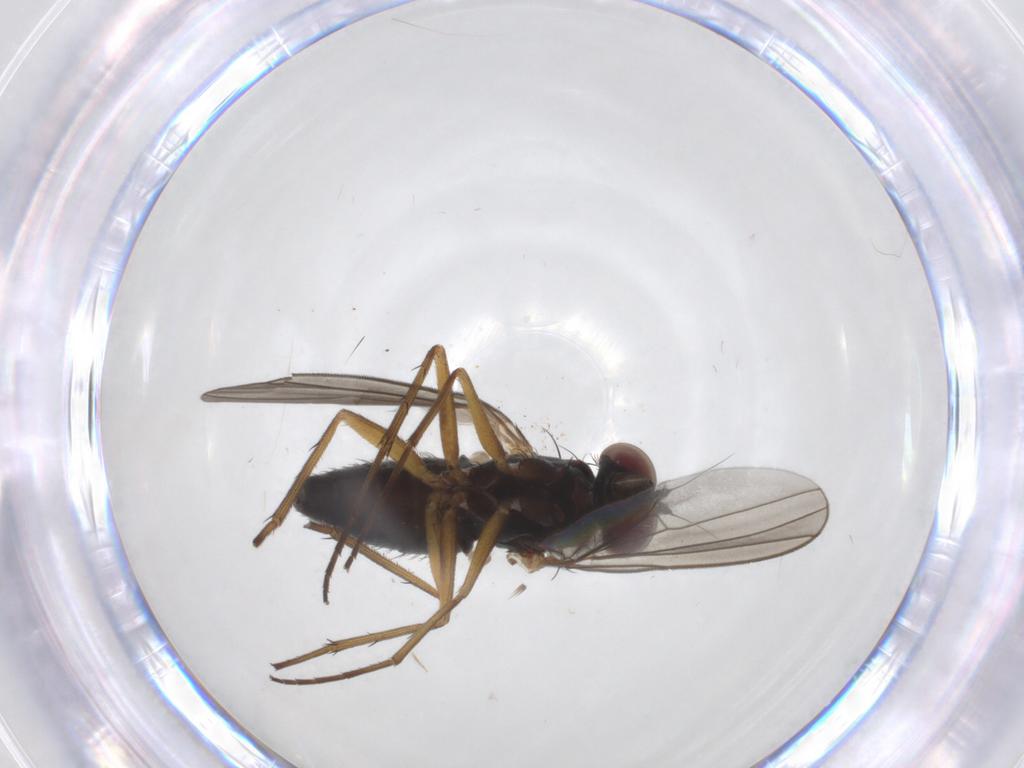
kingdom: Animalia
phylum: Arthropoda
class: Insecta
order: Diptera
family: Dolichopodidae
